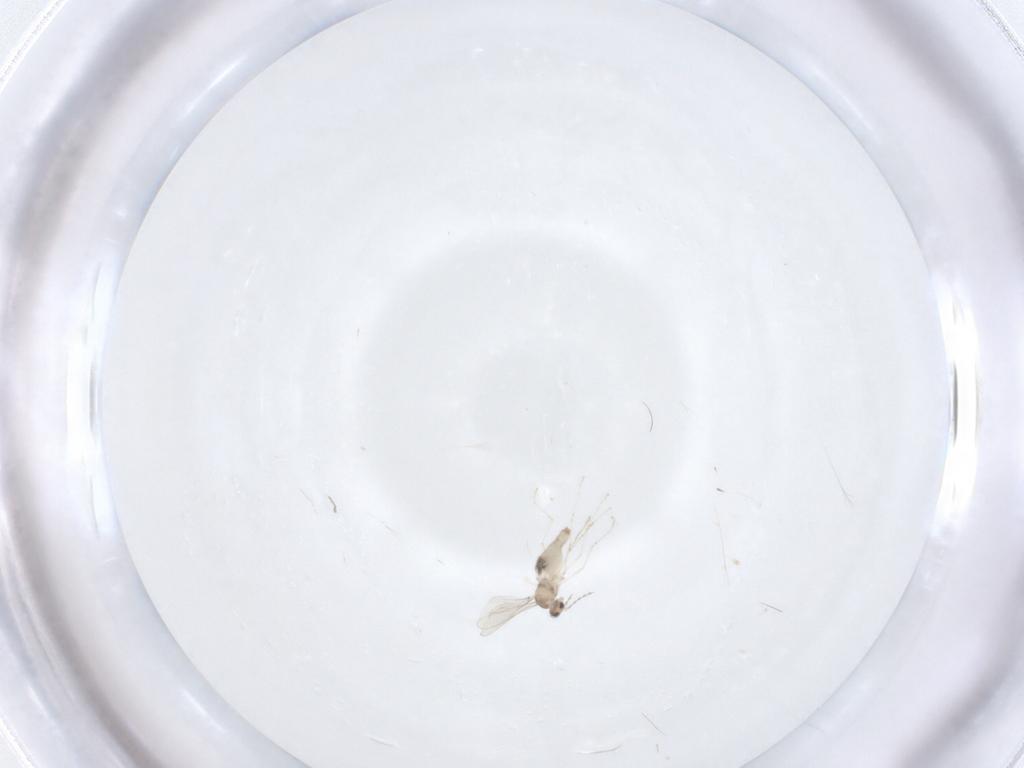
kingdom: Animalia
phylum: Arthropoda
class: Insecta
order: Diptera
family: Cecidomyiidae
